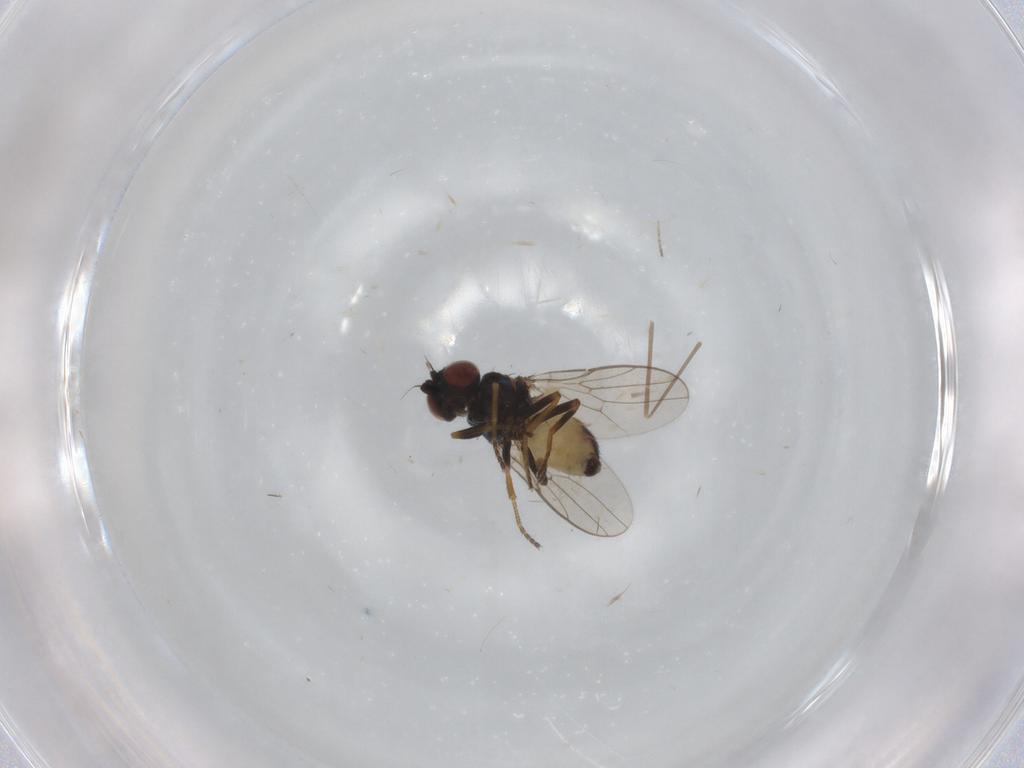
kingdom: Animalia
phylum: Arthropoda
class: Insecta
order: Diptera
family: Chloropidae
